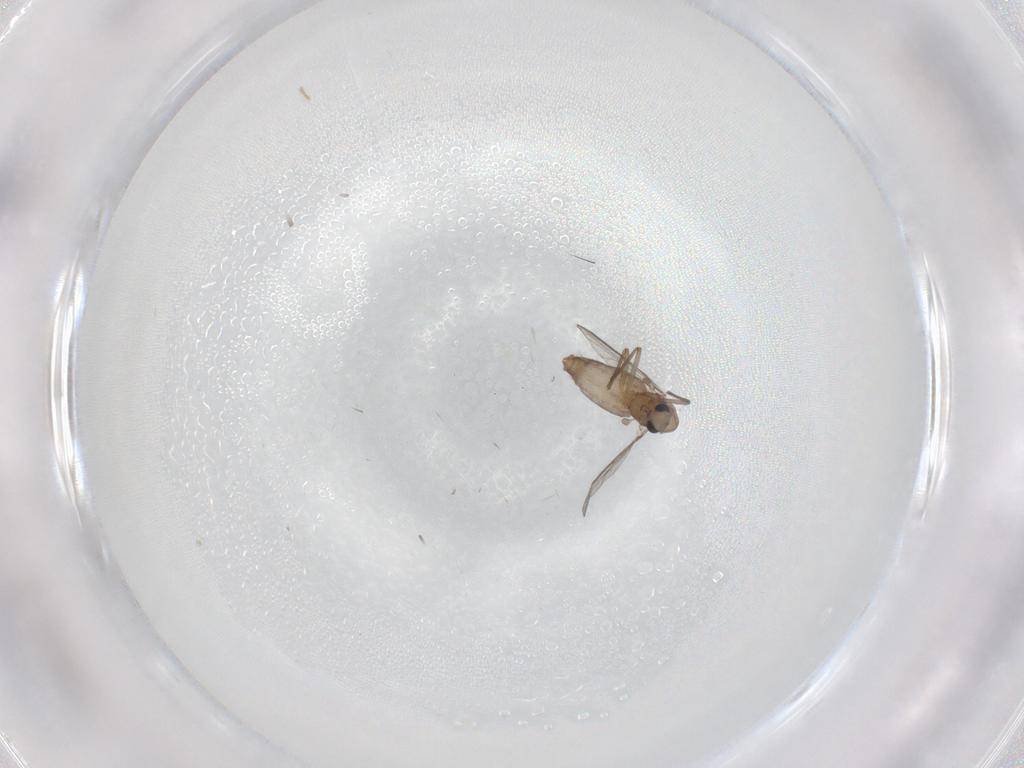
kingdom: Animalia
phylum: Arthropoda
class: Insecta
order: Diptera
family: Chironomidae
